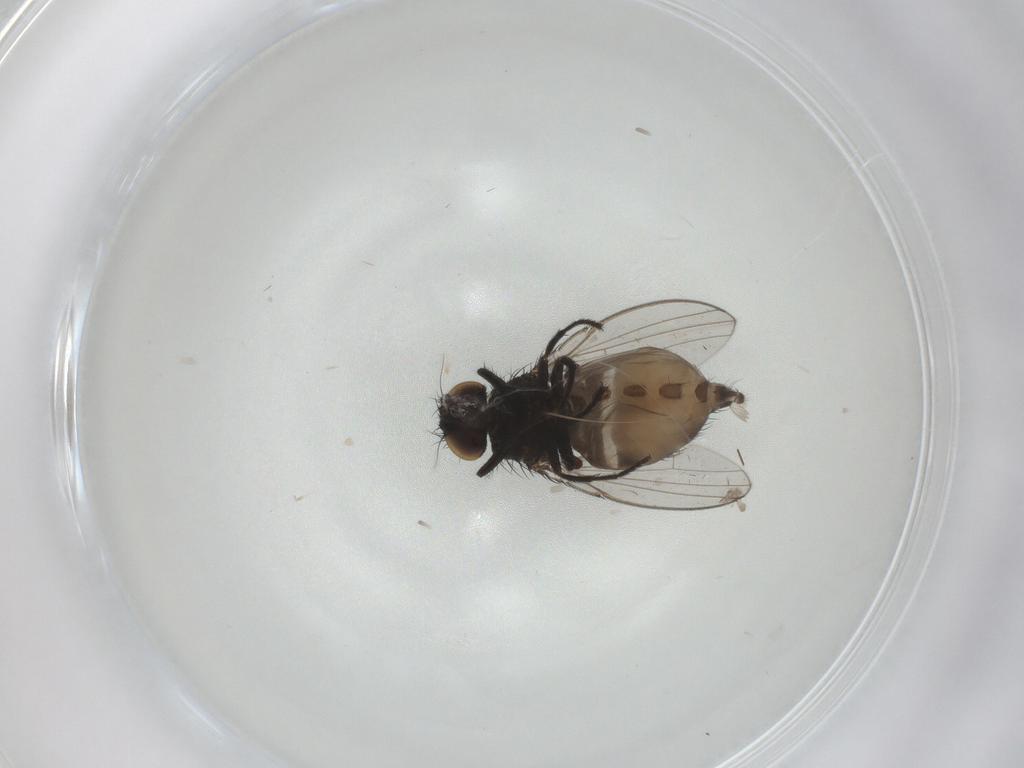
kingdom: Animalia
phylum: Arthropoda
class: Insecta
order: Diptera
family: Milichiidae
